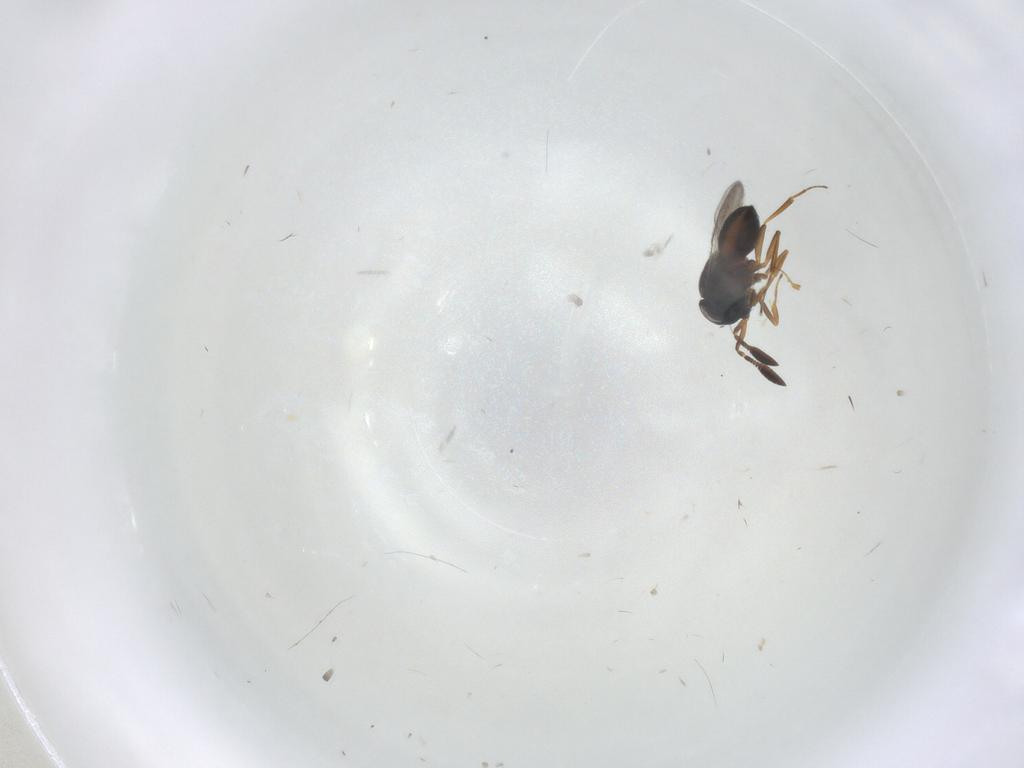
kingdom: Animalia
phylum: Arthropoda
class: Insecta
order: Hymenoptera
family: Scelionidae
